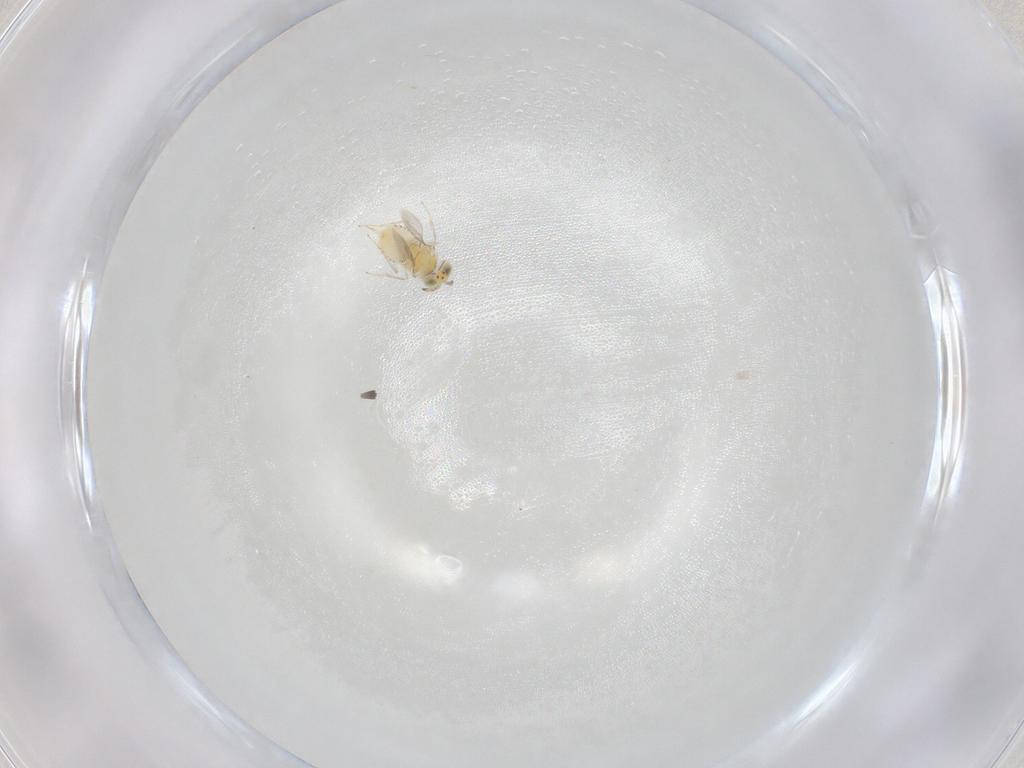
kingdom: Animalia
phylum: Arthropoda
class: Insecta
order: Hymenoptera
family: Aphelinidae
